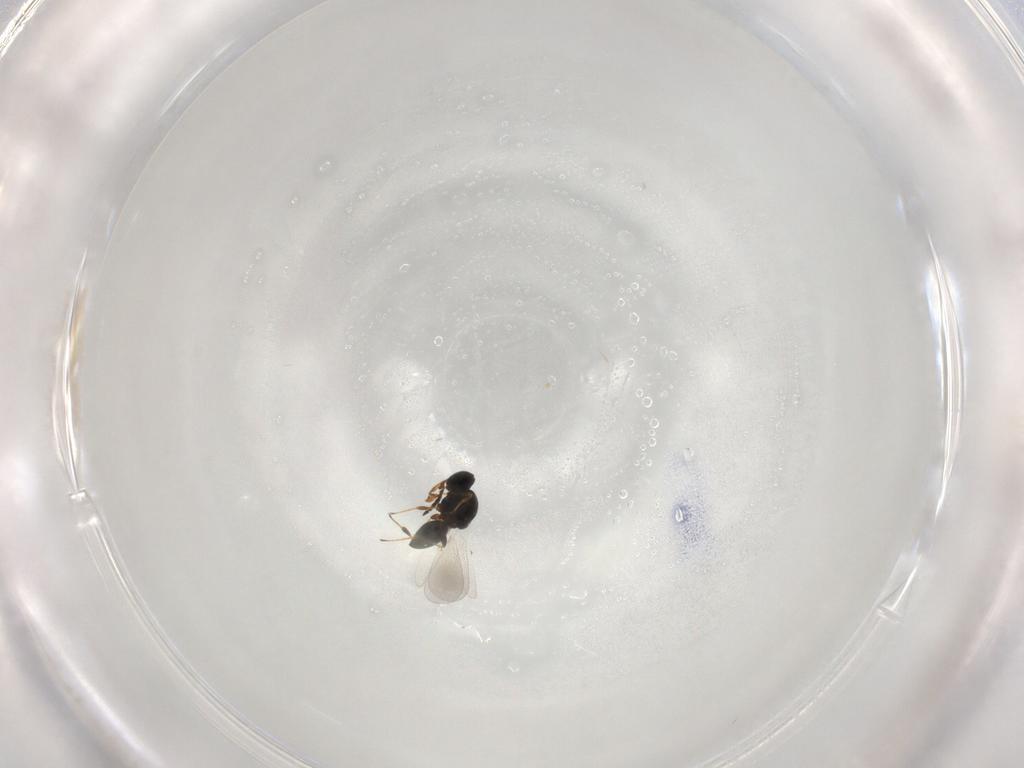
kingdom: Animalia
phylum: Arthropoda
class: Insecta
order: Hymenoptera
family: Platygastridae
